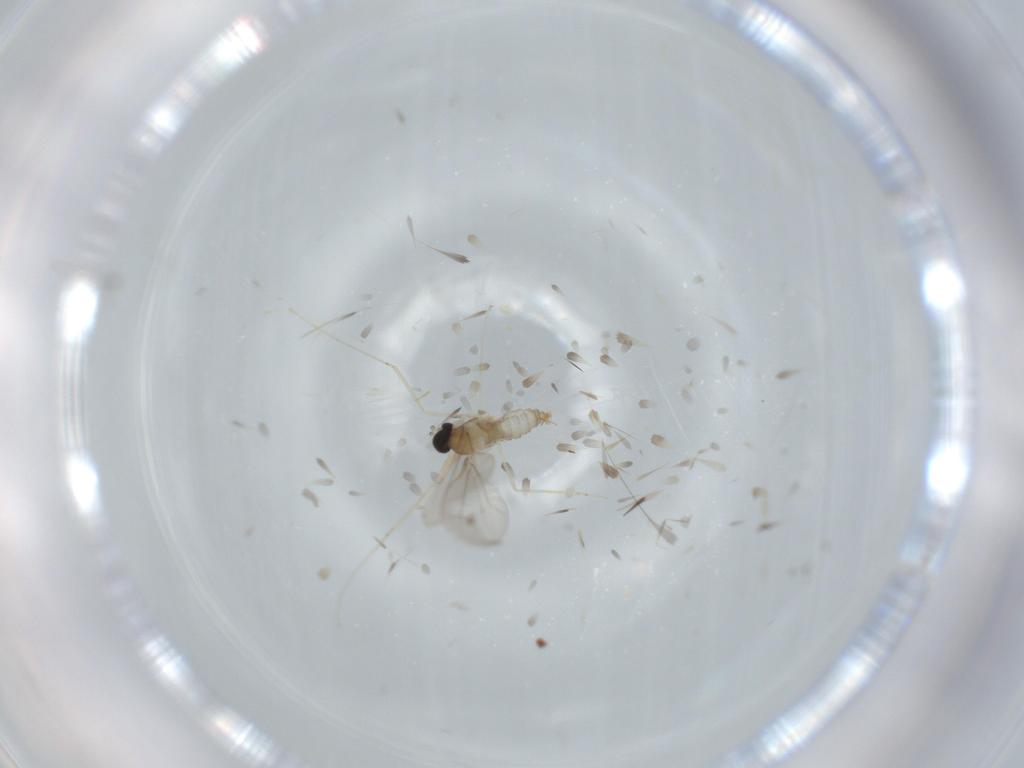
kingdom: Animalia
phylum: Arthropoda
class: Insecta
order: Diptera
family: Cecidomyiidae
